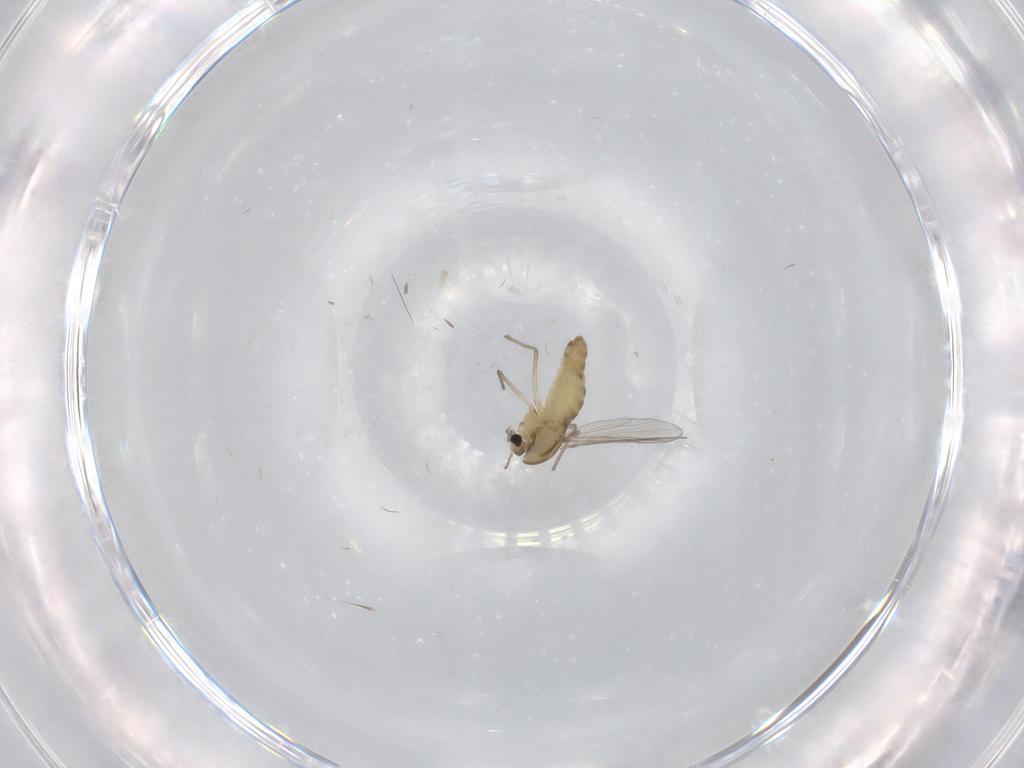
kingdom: Animalia
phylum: Arthropoda
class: Insecta
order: Diptera
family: Chironomidae
